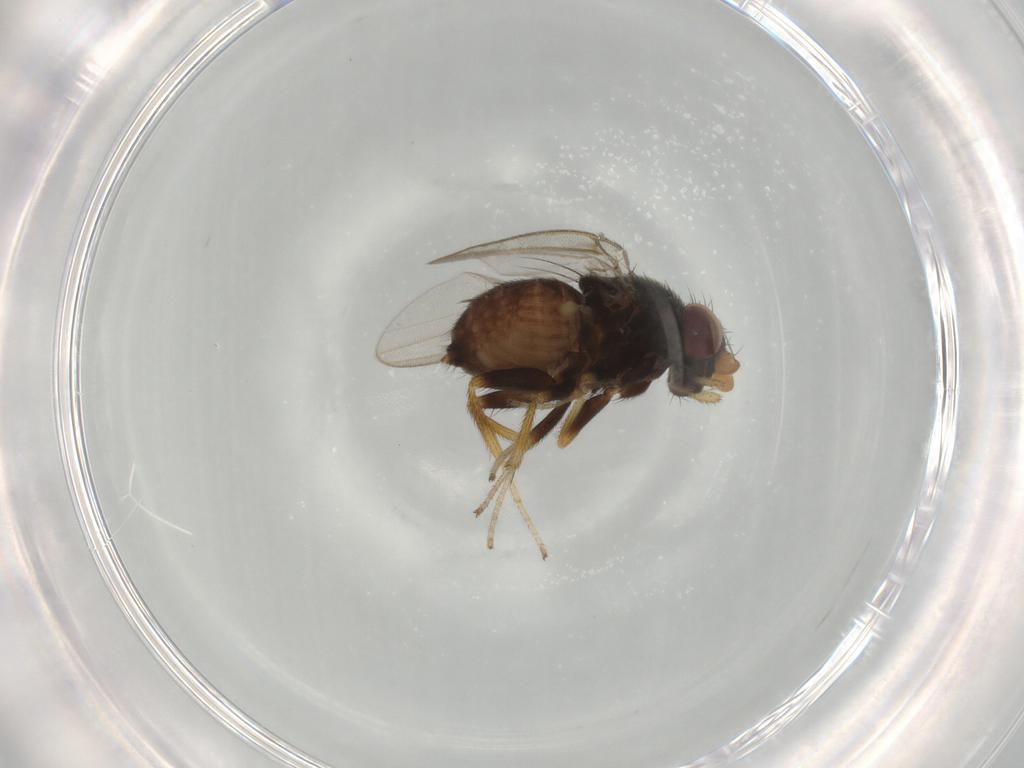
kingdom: Animalia
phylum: Arthropoda
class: Insecta
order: Diptera
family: Milichiidae
